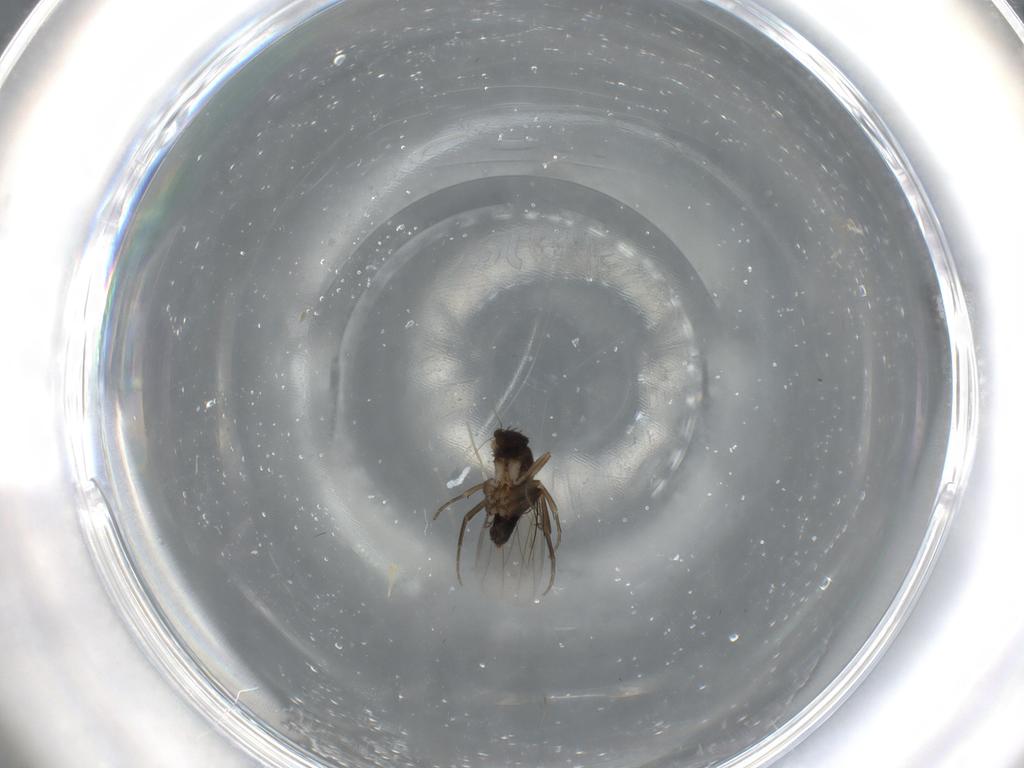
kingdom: Animalia
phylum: Arthropoda
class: Insecta
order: Diptera
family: Phoridae
